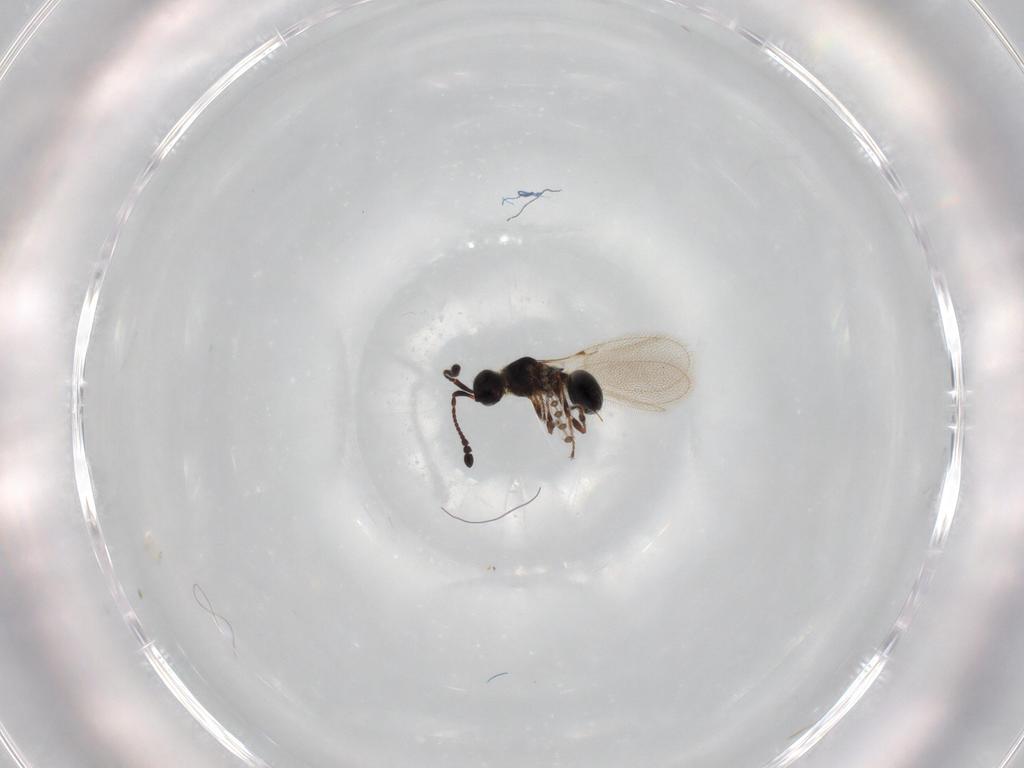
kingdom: Animalia
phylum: Arthropoda
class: Insecta
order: Hymenoptera
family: Diapriidae
